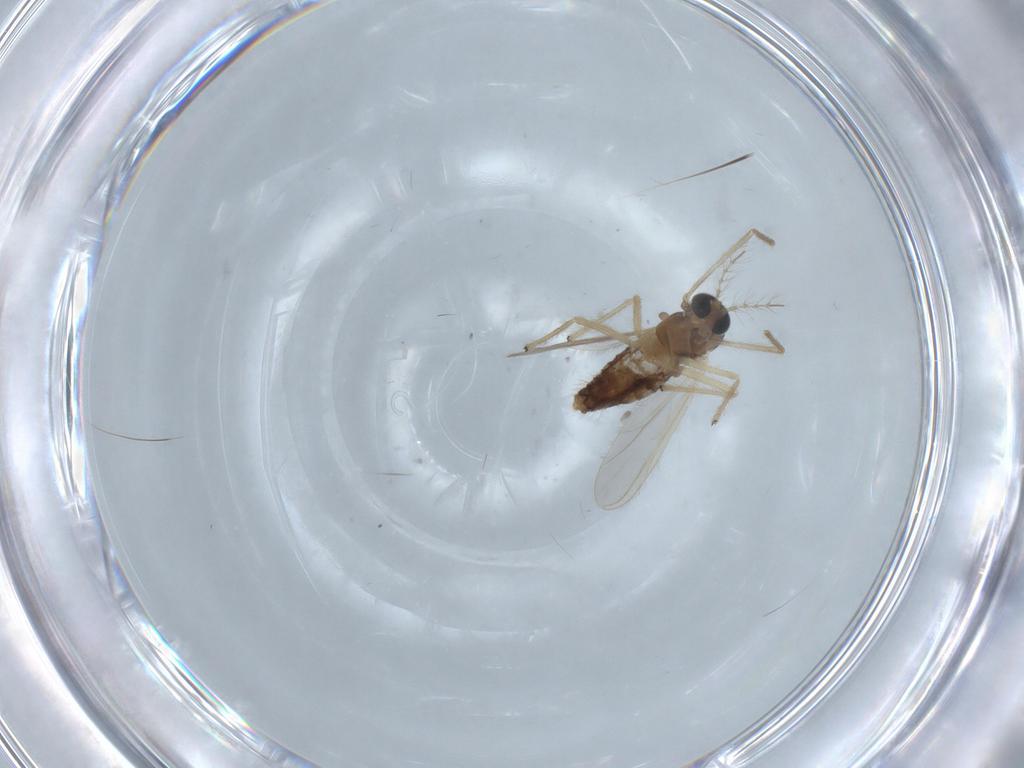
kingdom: Animalia
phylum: Arthropoda
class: Insecta
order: Diptera
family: Chironomidae
